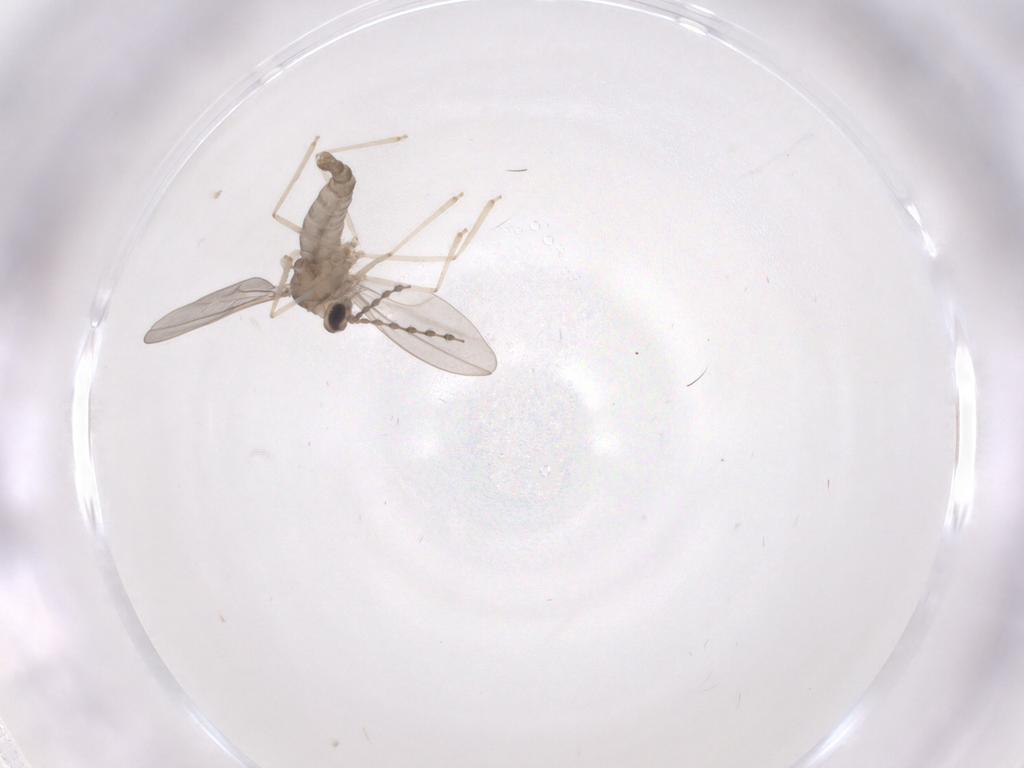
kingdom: Animalia
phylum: Arthropoda
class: Insecta
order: Diptera
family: Cecidomyiidae
